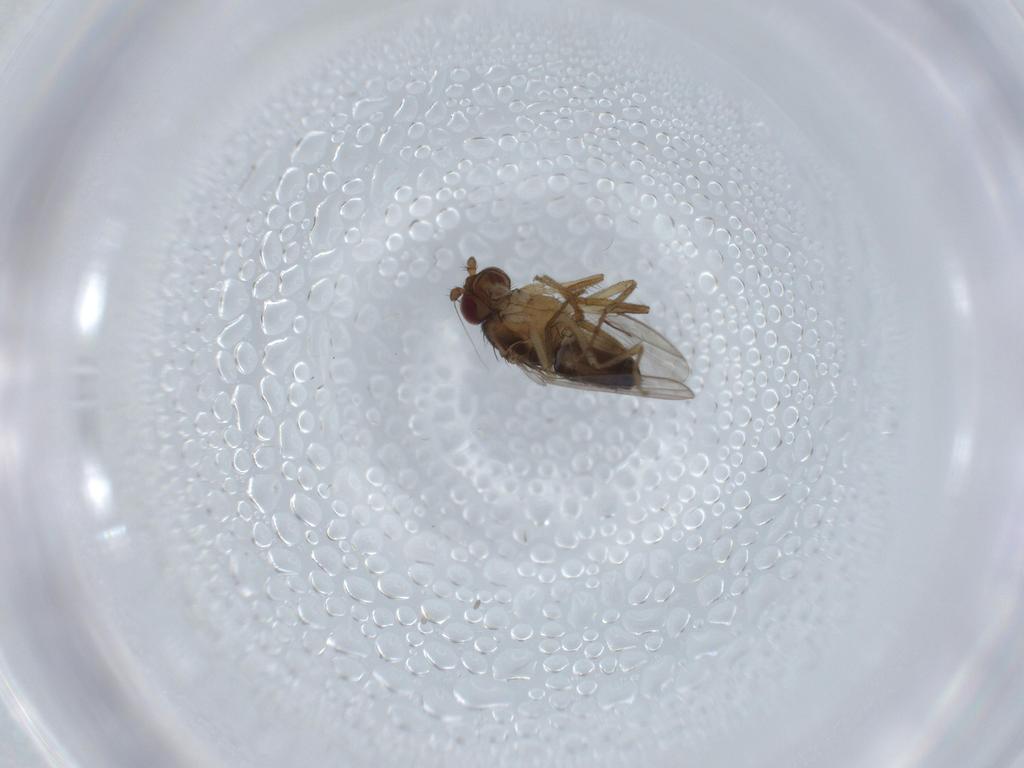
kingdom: Animalia
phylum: Arthropoda
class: Insecta
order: Diptera
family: Sphaeroceridae
